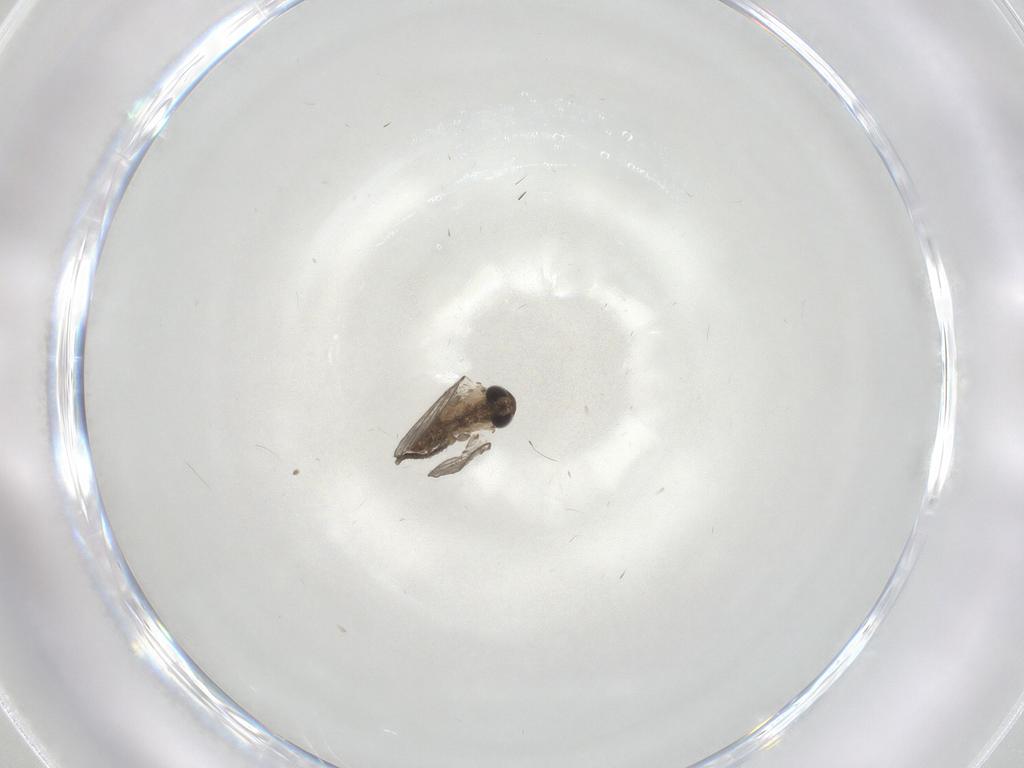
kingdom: Animalia
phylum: Arthropoda
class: Insecta
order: Diptera
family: Psychodidae
